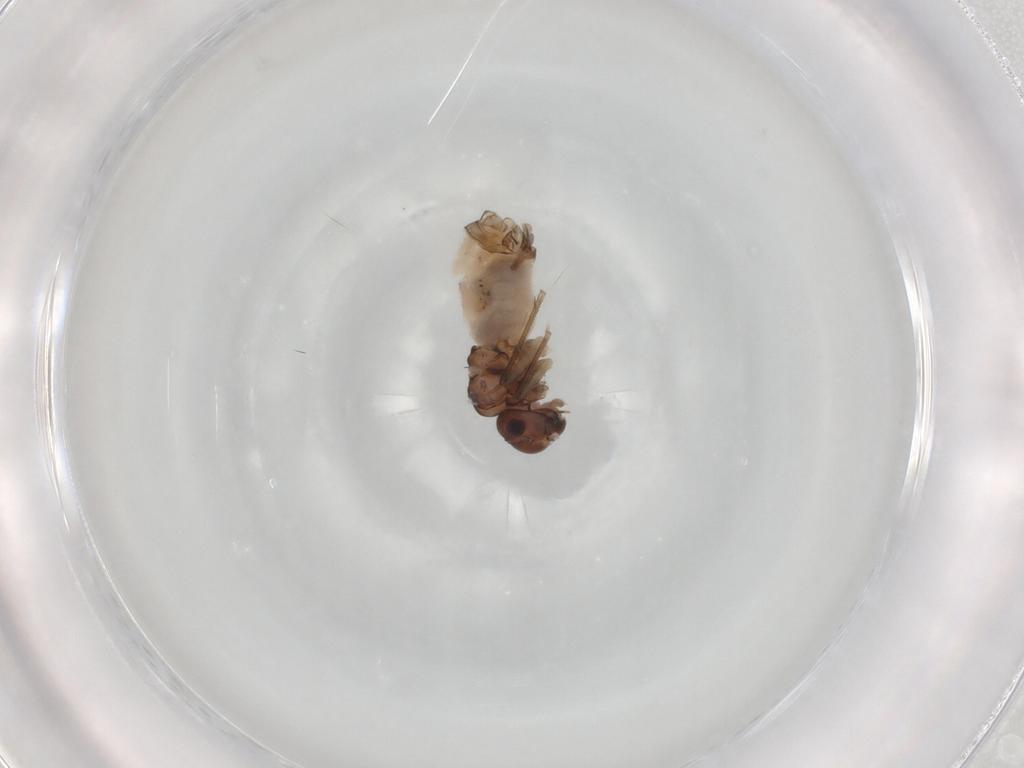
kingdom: Animalia
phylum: Arthropoda
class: Insecta
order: Psocodea
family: Peripsocidae
